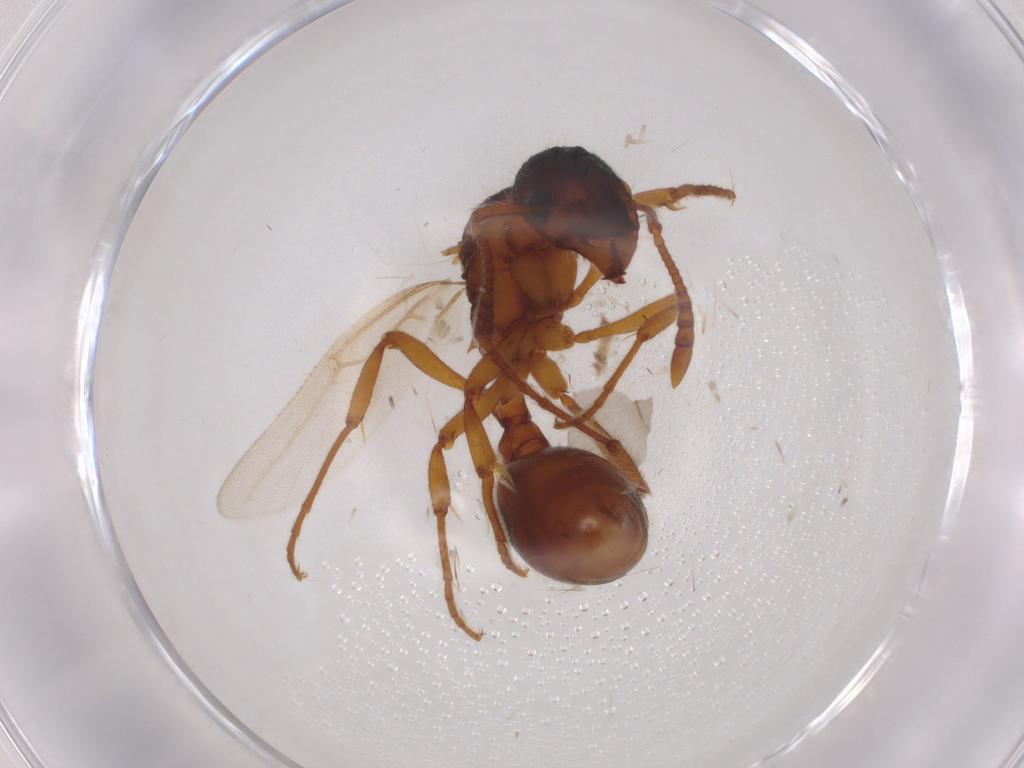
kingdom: Animalia
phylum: Arthropoda
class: Insecta
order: Hymenoptera
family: Formicidae
